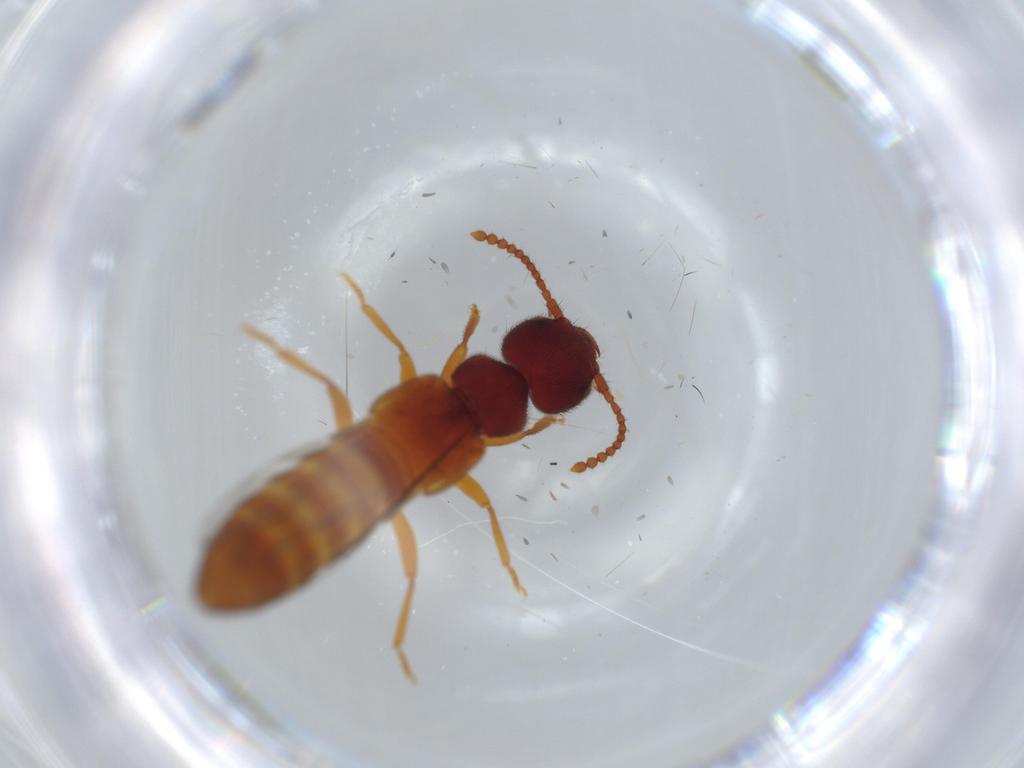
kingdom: Animalia
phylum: Arthropoda
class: Insecta
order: Coleoptera
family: Staphylinidae
